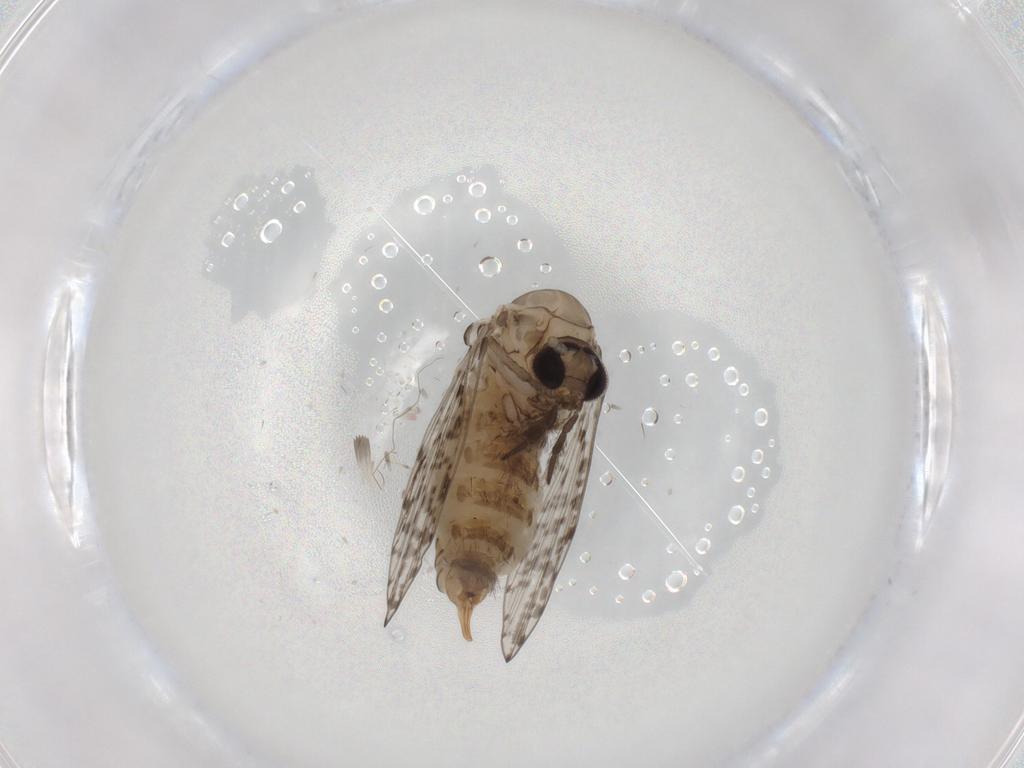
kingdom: Animalia
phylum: Arthropoda
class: Insecta
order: Diptera
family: Psychodidae
